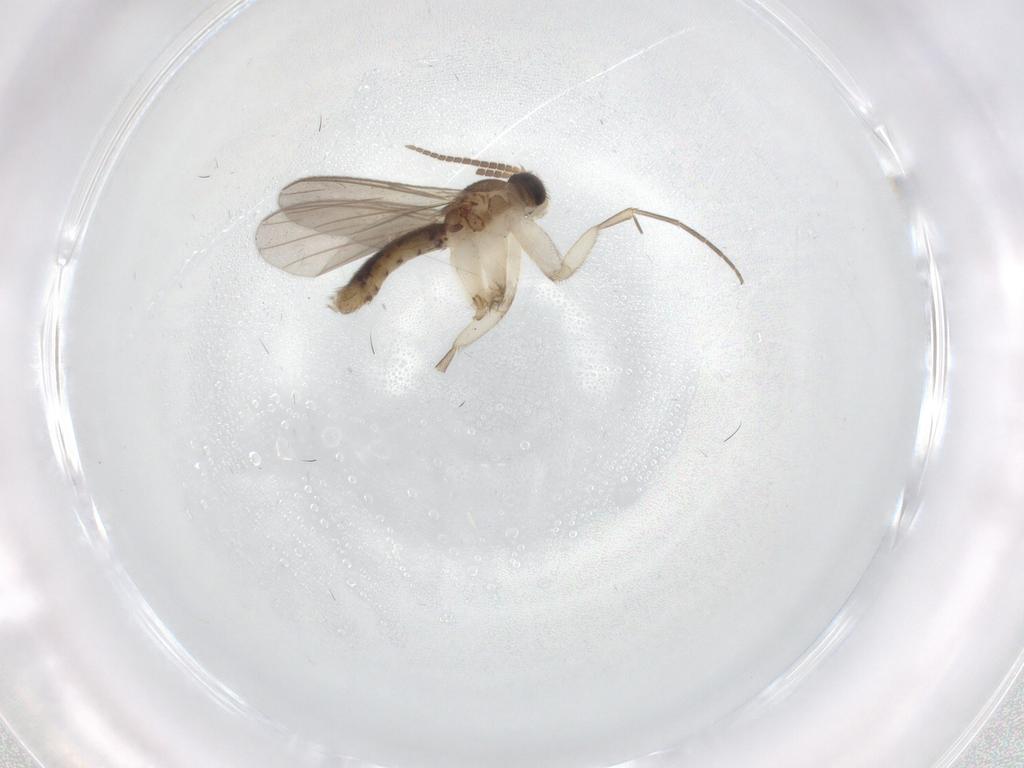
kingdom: Animalia
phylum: Arthropoda
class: Insecta
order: Diptera
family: Mycetophilidae
